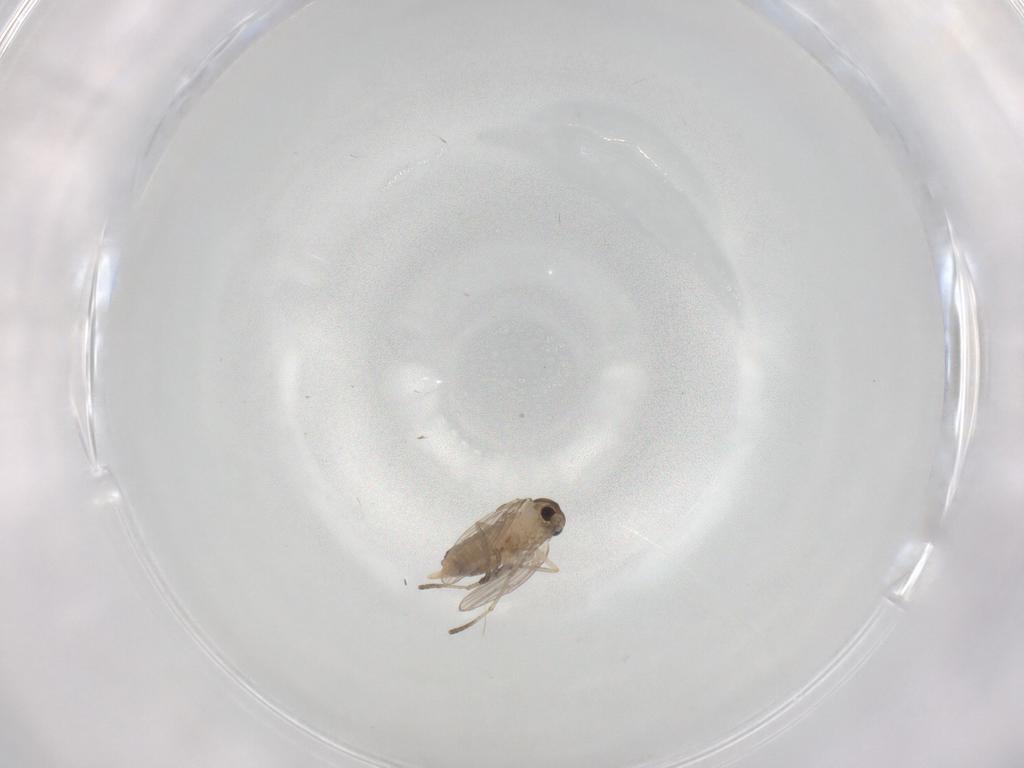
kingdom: Animalia
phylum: Arthropoda
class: Insecta
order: Diptera
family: Psychodidae
